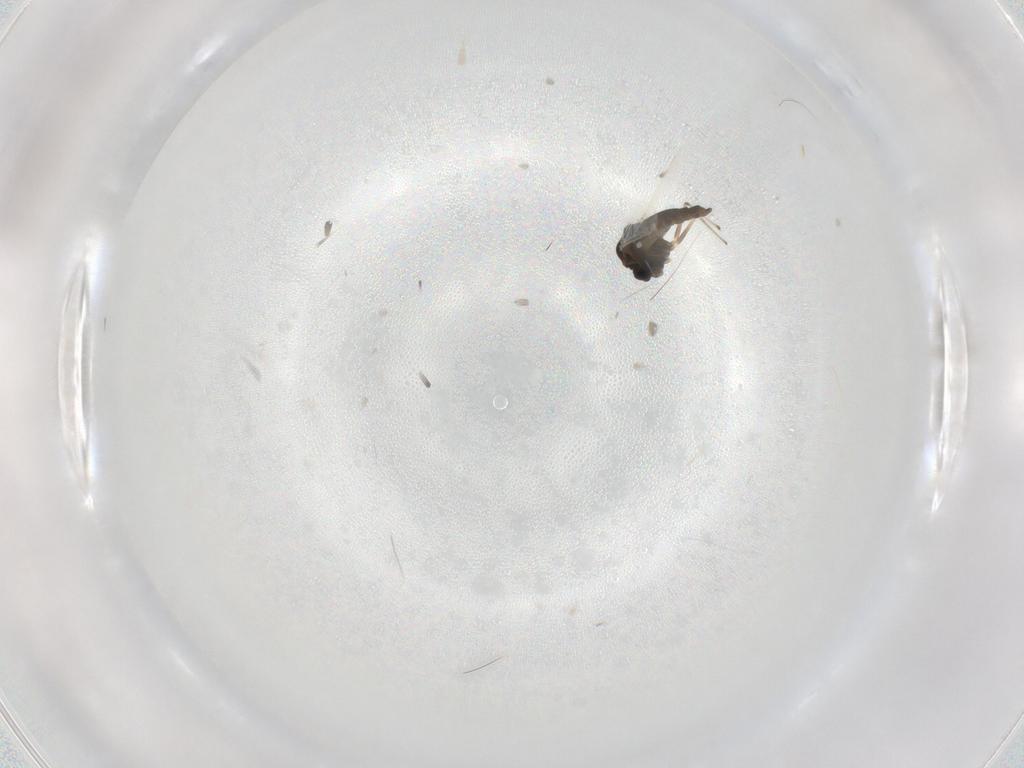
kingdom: Animalia
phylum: Arthropoda
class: Insecta
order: Diptera
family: Chironomidae
